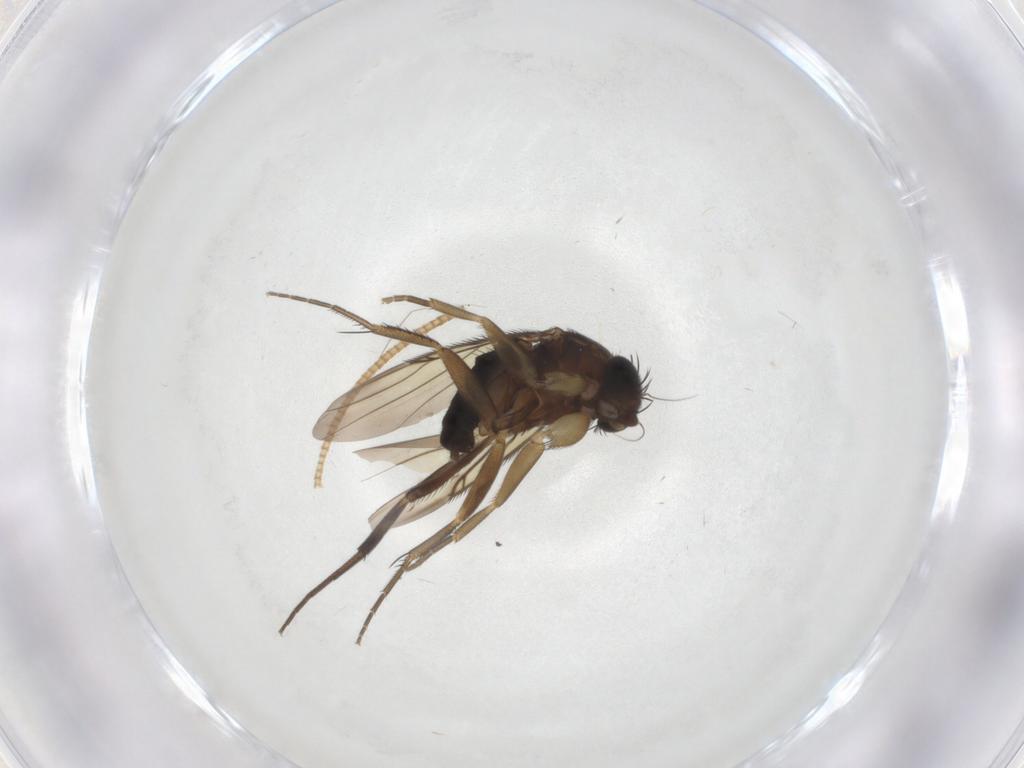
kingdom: Animalia
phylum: Arthropoda
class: Insecta
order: Diptera
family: Phoridae
